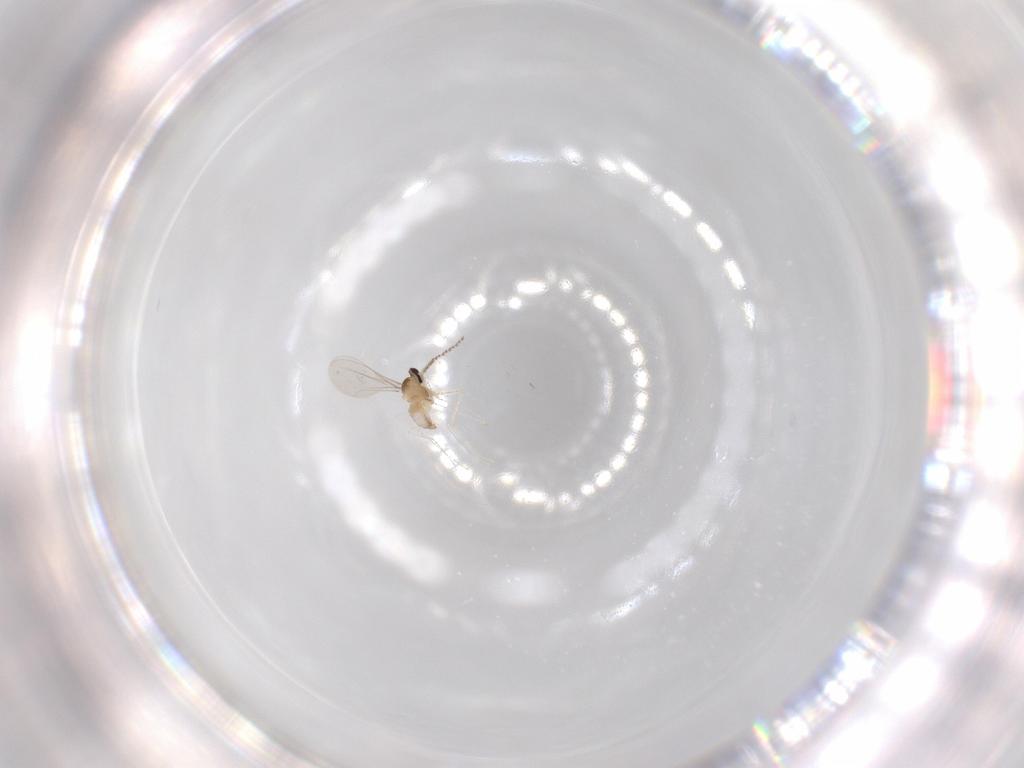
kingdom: Animalia
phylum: Arthropoda
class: Insecta
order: Diptera
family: Cecidomyiidae
